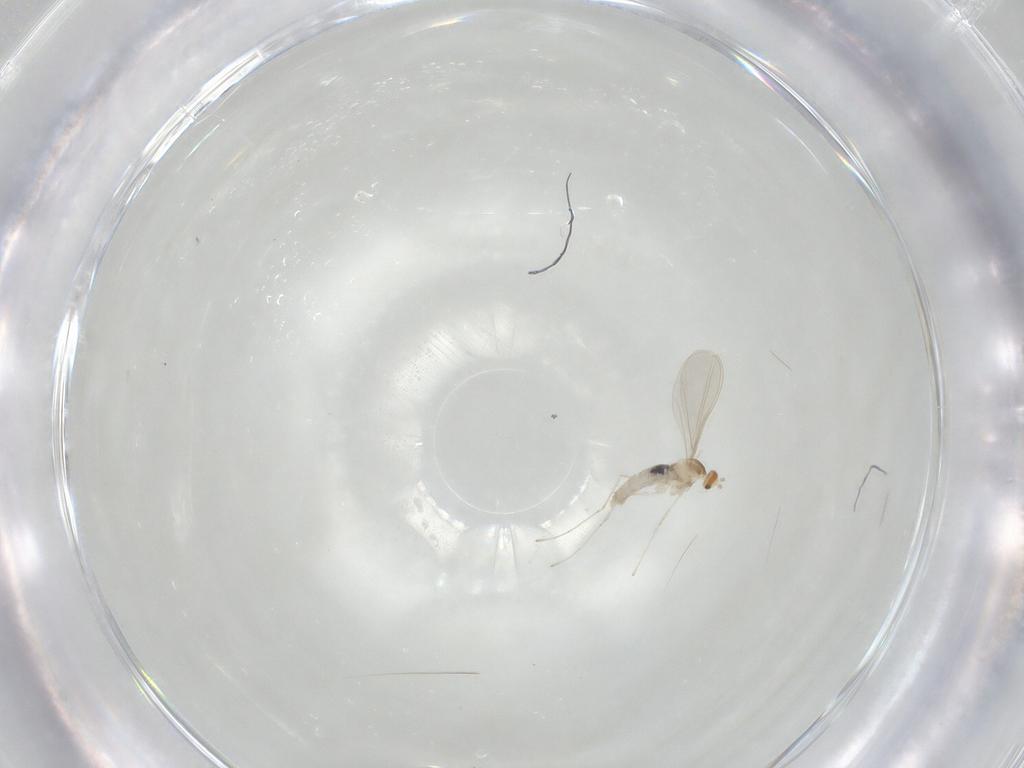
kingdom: Animalia
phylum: Arthropoda
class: Insecta
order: Diptera
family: Cecidomyiidae
